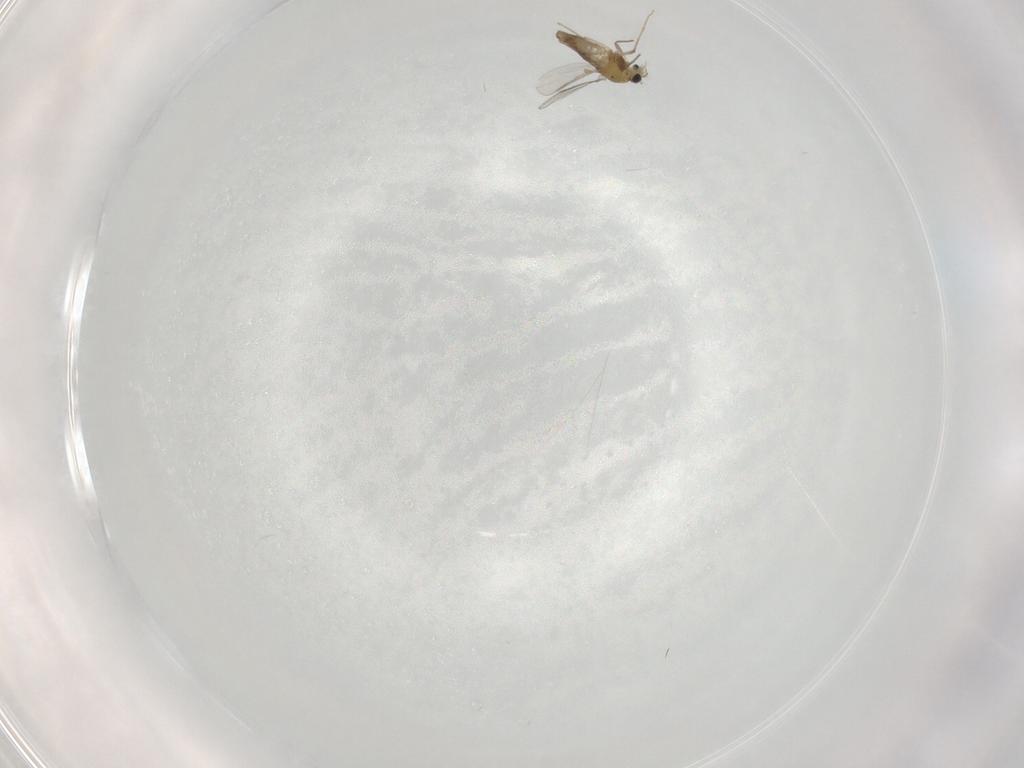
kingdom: Animalia
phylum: Arthropoda
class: Insecta
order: Diptera
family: Chironomidae
